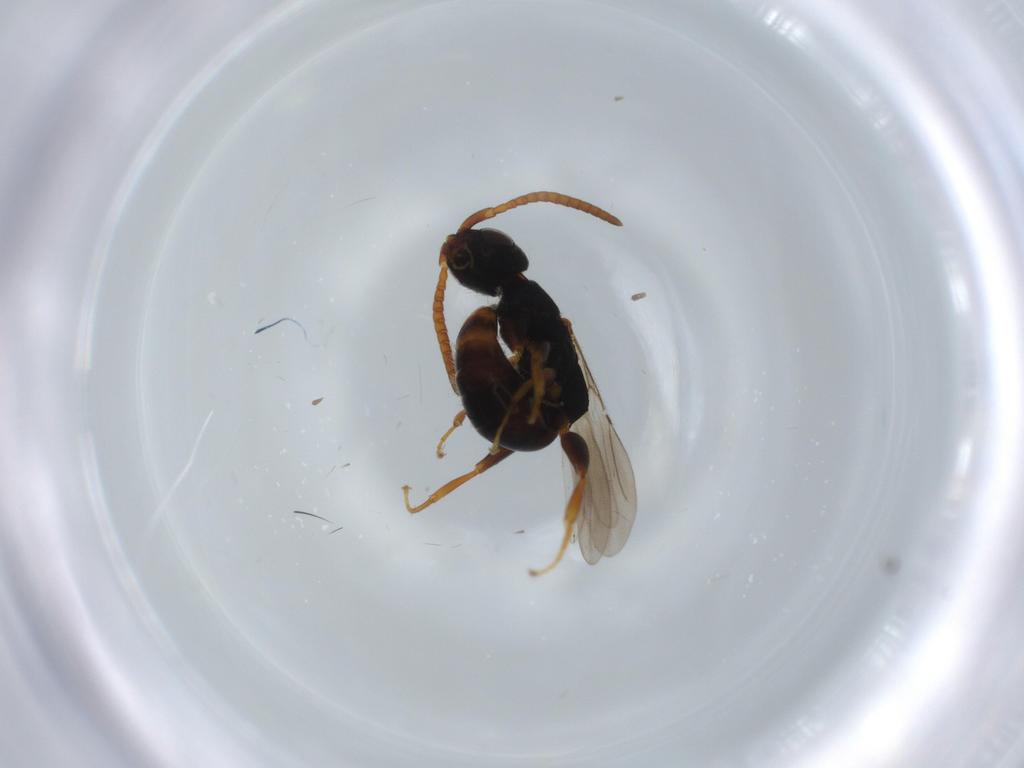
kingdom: Animalia
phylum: Arthropoda
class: Insecta
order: Hymenoptera
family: Bethylidae
